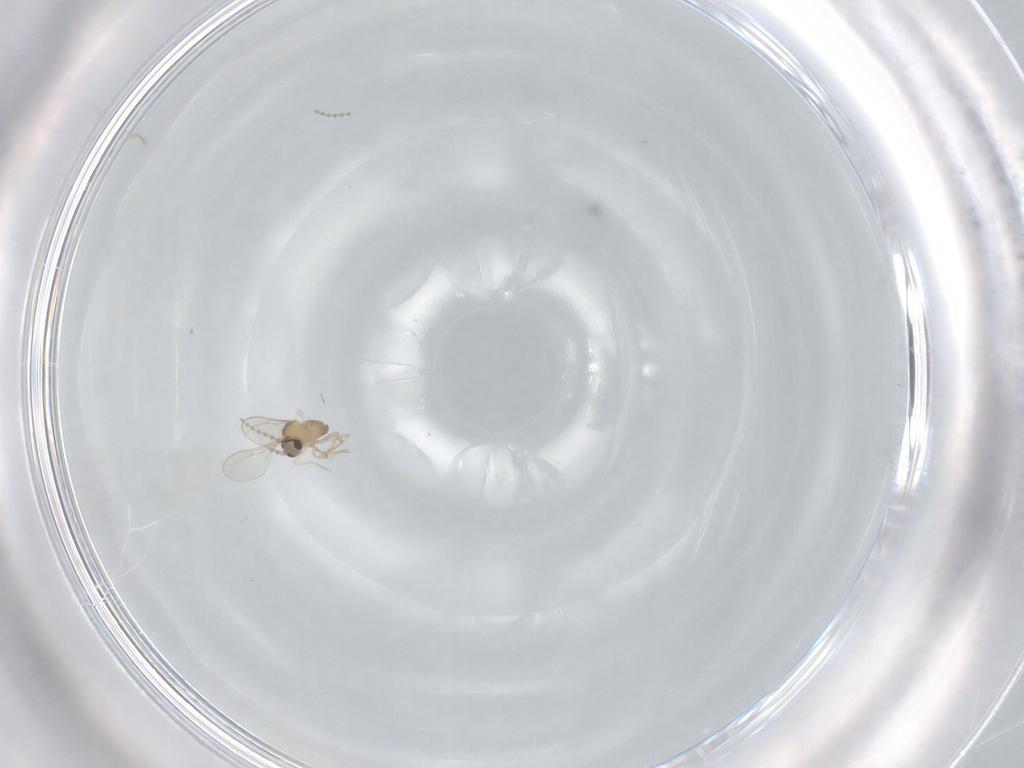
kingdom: Animalia
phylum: Arthropoda
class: Insecta
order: Diptera
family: Cecidomyiidae
